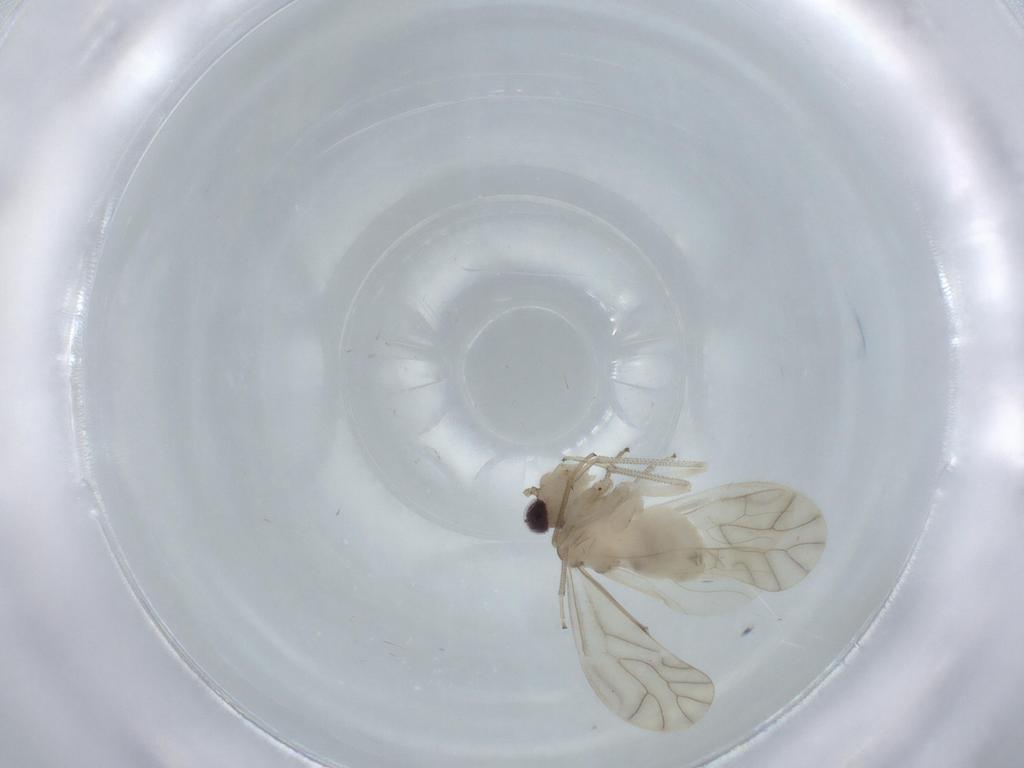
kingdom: Animalia
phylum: Arthropoda
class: Insecta
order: Psocodea
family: Caeciliusidae
